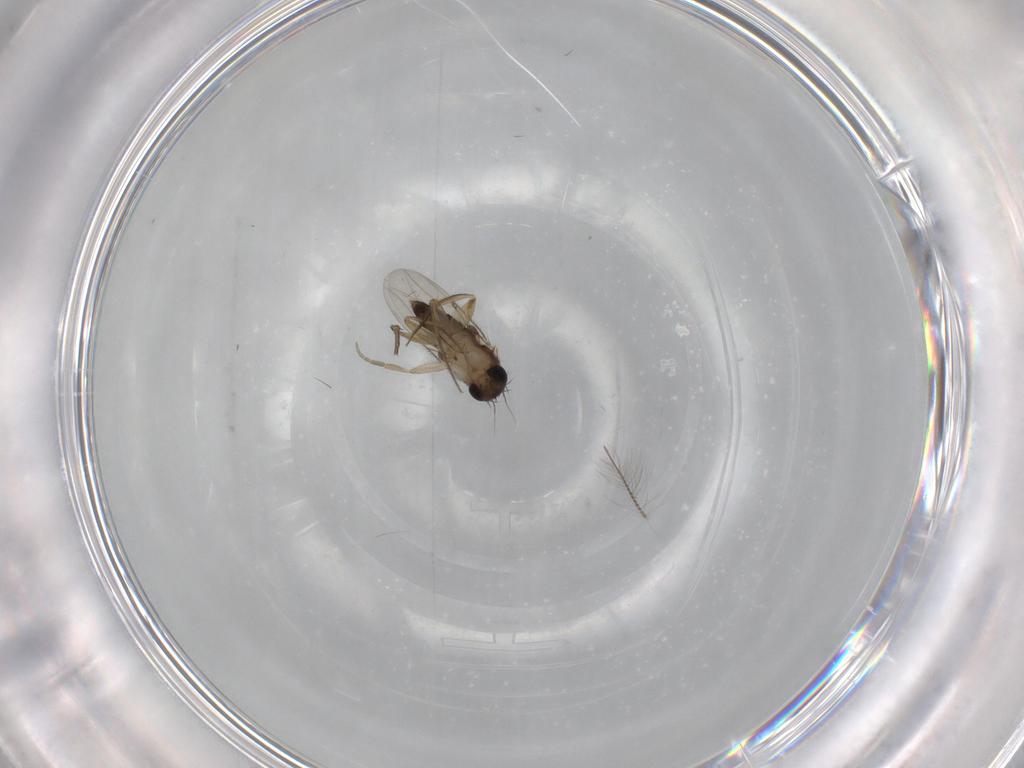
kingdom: Animalia
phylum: Arthropoda
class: Insecta
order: Diptera
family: Phoridae
